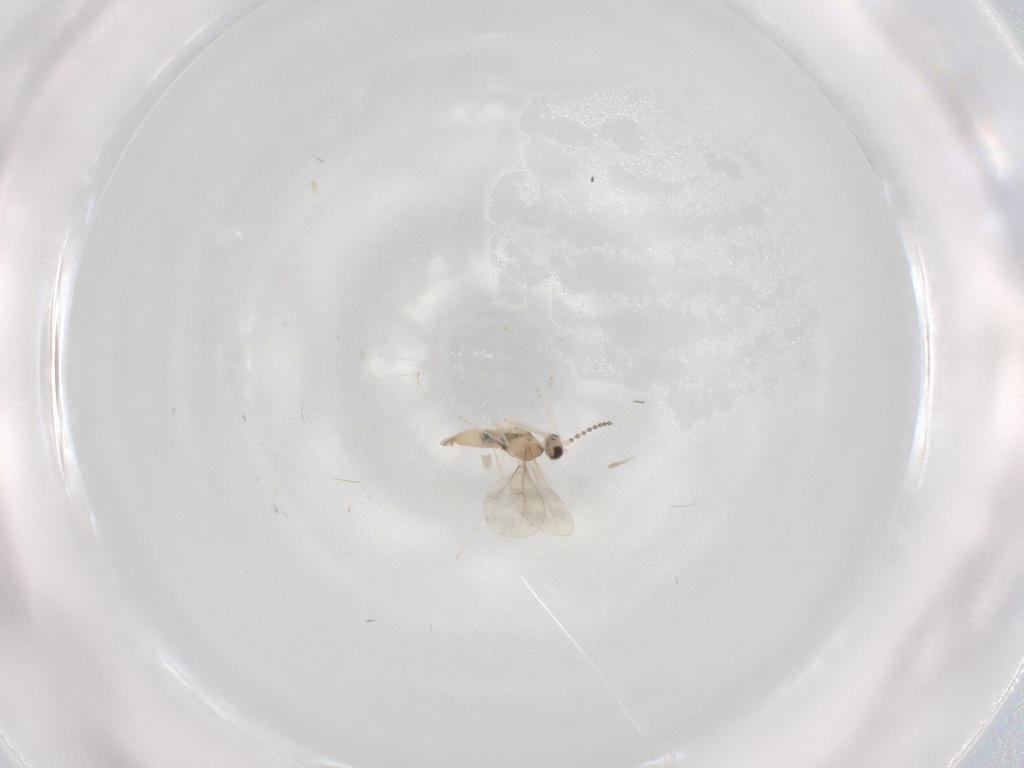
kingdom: Animalia
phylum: Arthropoda
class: Insecta
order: Diptera
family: Cecidomyiidae
